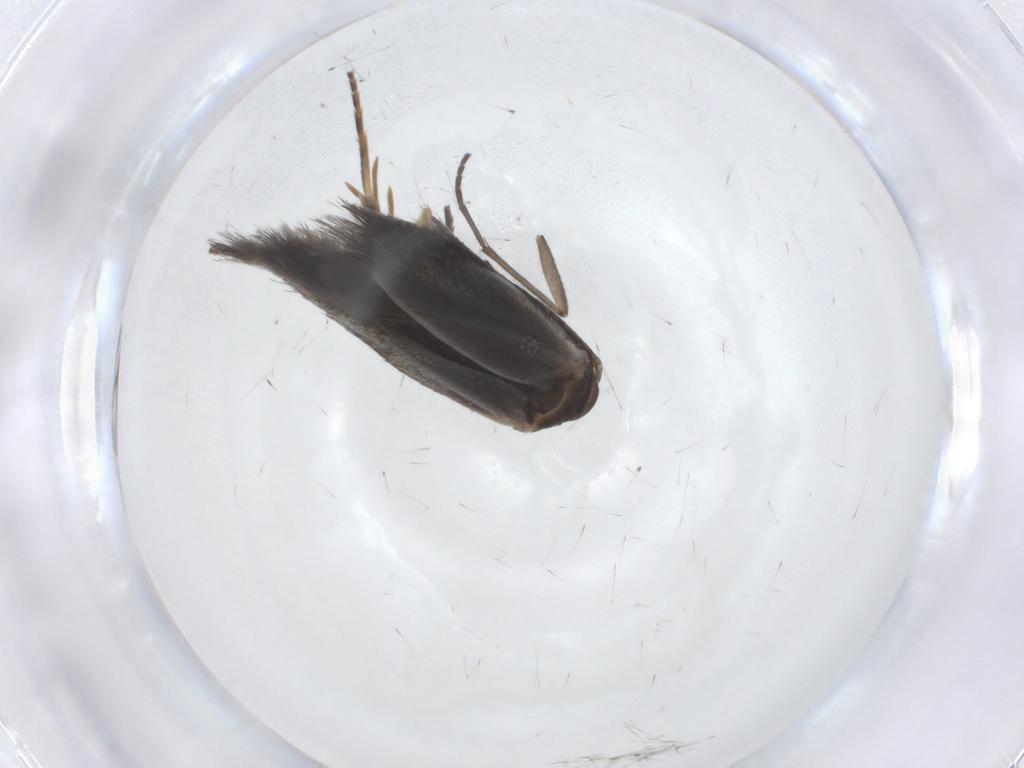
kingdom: Animalia
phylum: Arthropoda
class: Insecta
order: Lepidoptera
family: Elachistidae
